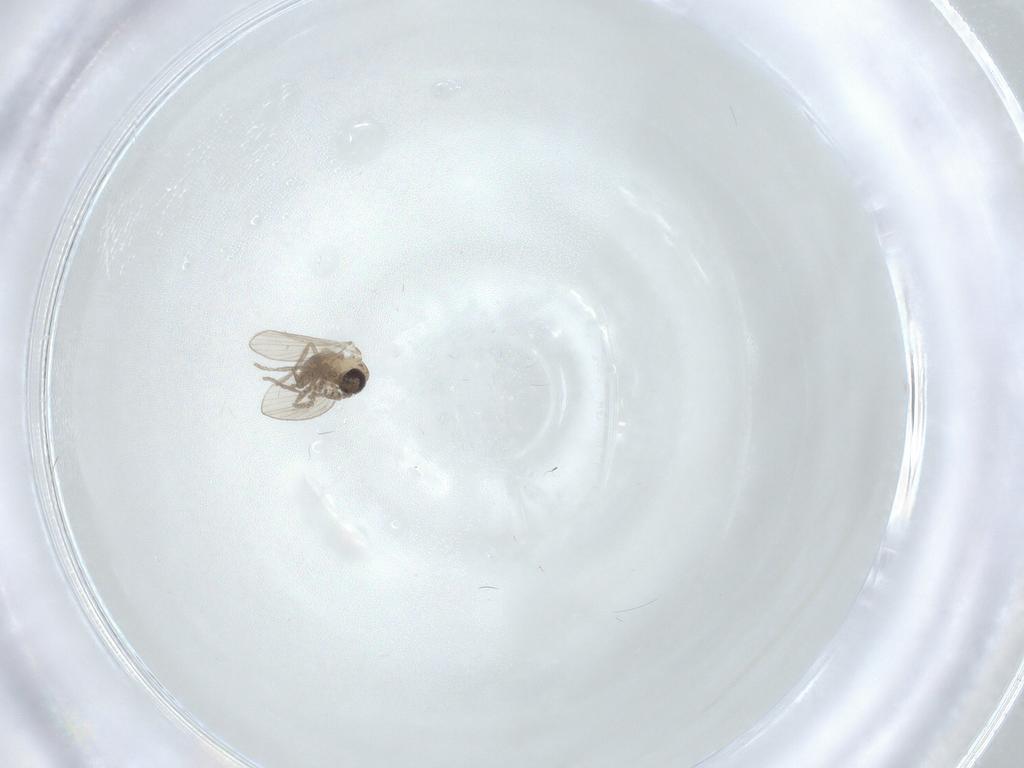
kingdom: Animalia
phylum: Arthropoda
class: Insecta
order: Diptera
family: Psychodidae
